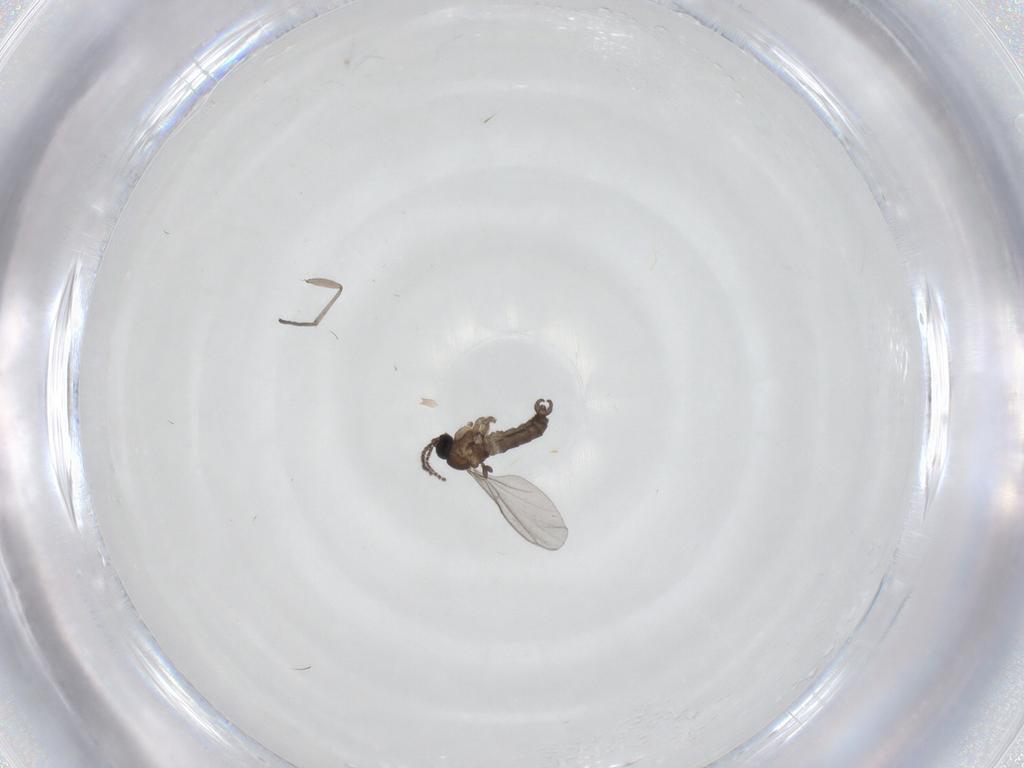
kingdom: Animalia
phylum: Arthropoda
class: Insecta
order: Diptera
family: Sciaridae
